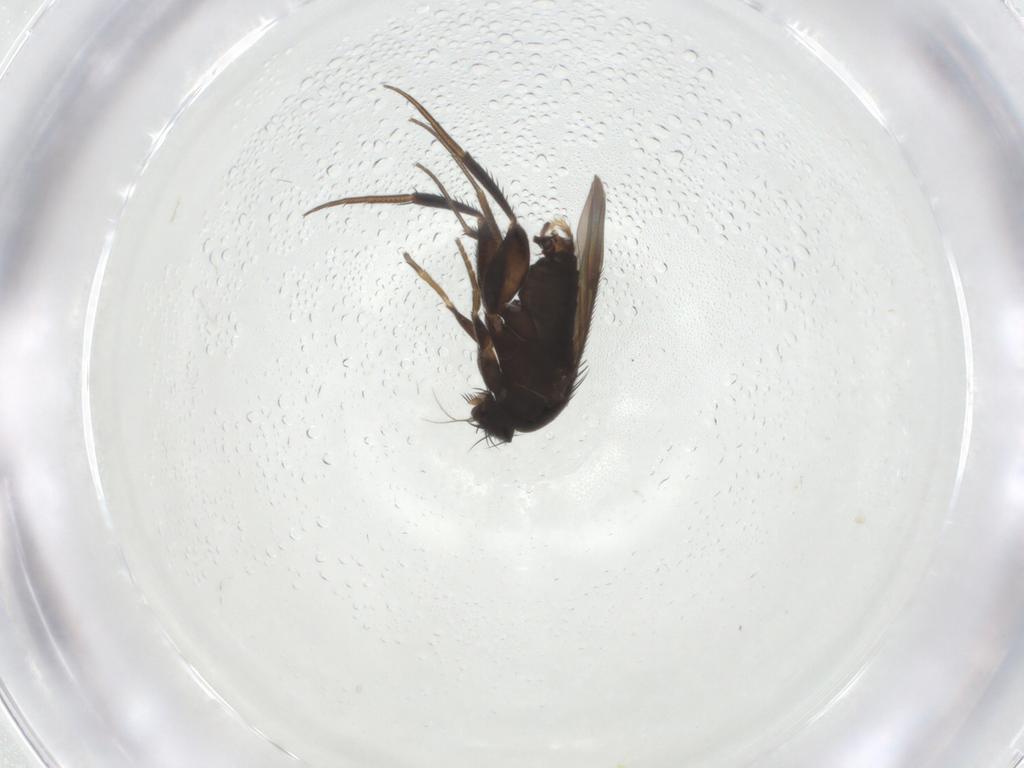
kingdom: Animalia
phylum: Arthropoda
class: Insecta
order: Diptera
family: Phoridae
